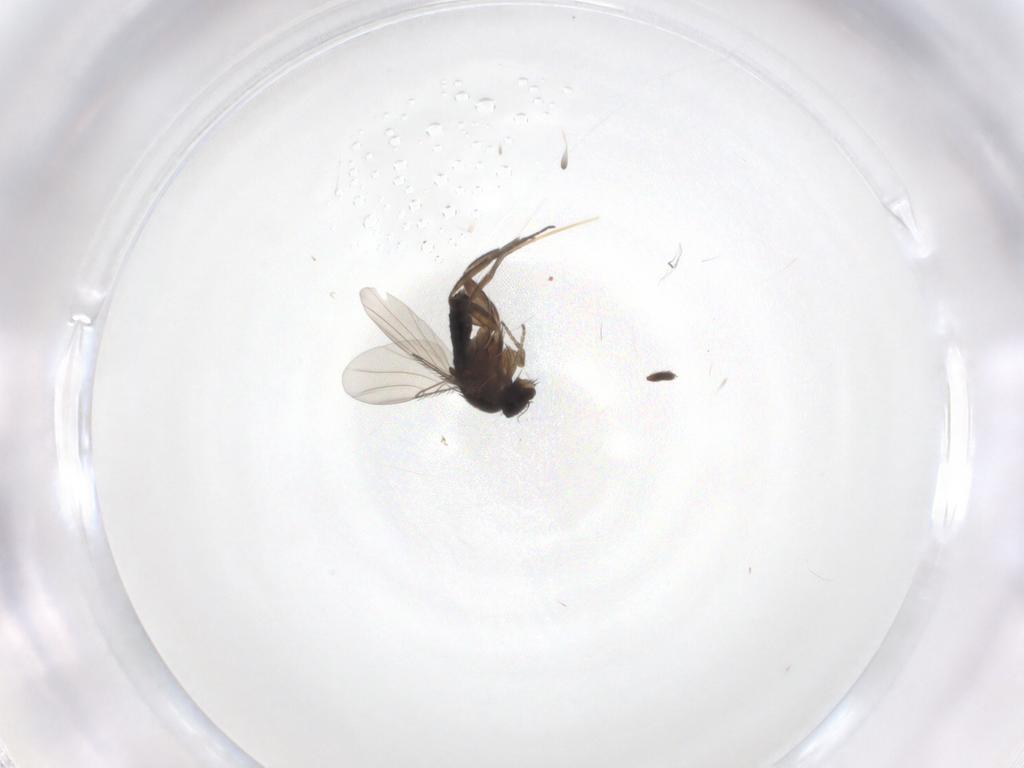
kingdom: Animalia
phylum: Arthropoda
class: Insecta
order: Diptera
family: Phoridae
